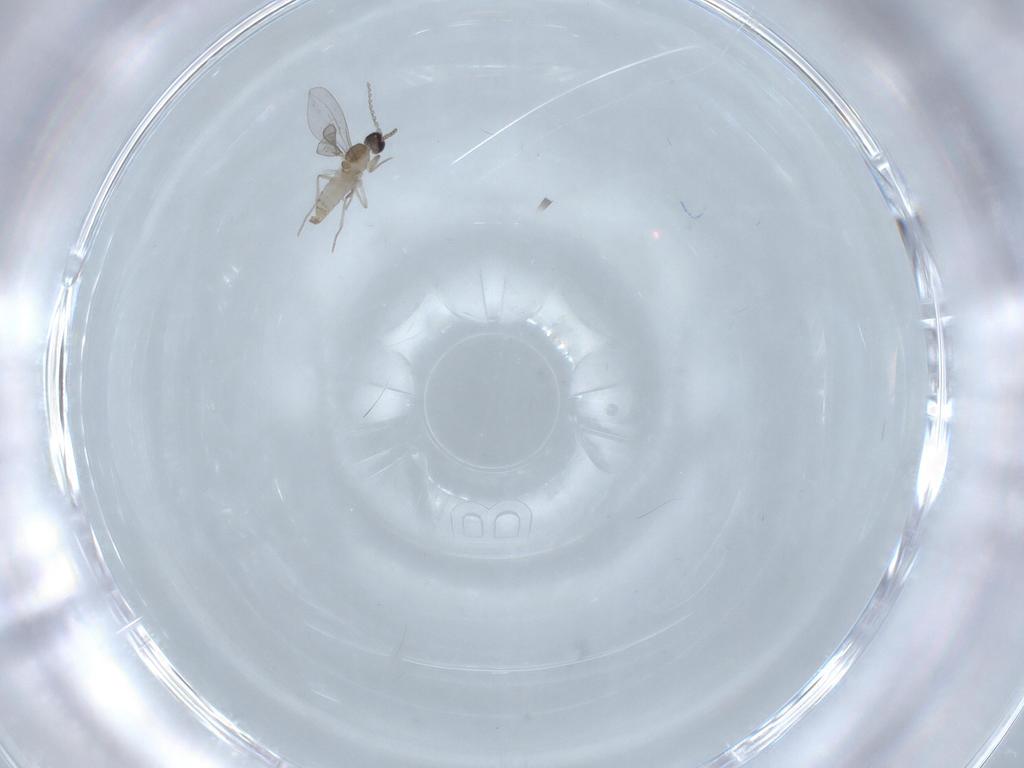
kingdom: Animalia
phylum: Arthropoda
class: Insecta
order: Diptera
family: Cecidomyiidae
